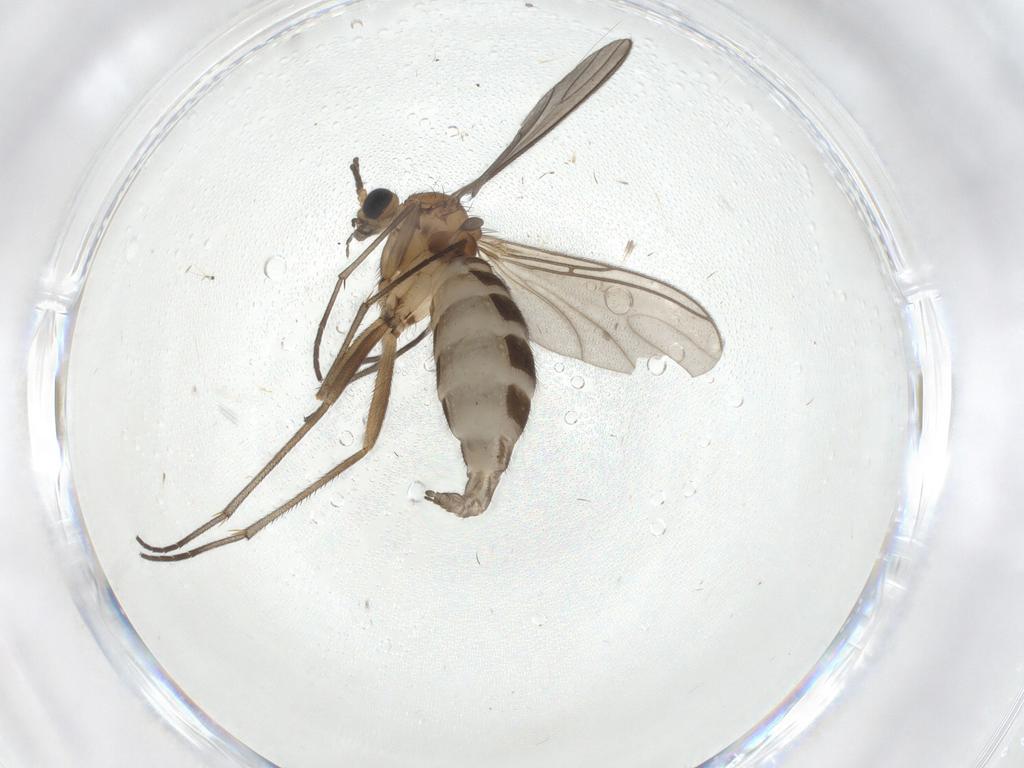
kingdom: Animalia
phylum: Arthropoda
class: Insecta
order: Diptera
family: Sciaridae
